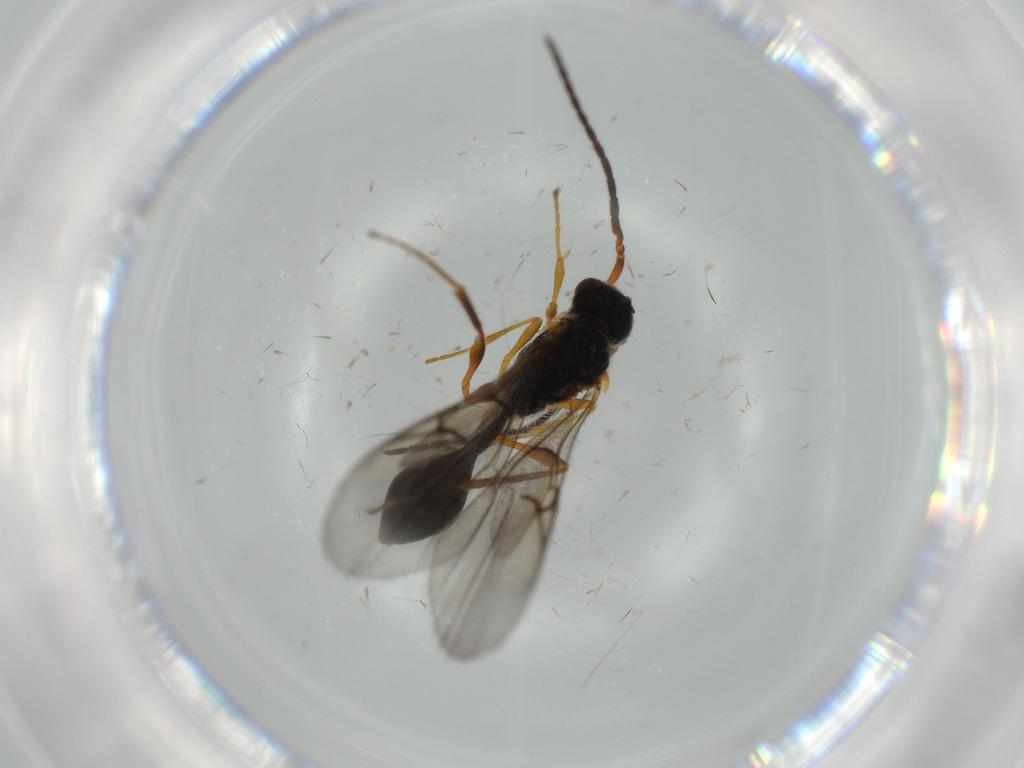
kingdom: Animalia
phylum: Arthropoda
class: Insecta
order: Hymenoptera
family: Diapriidae
